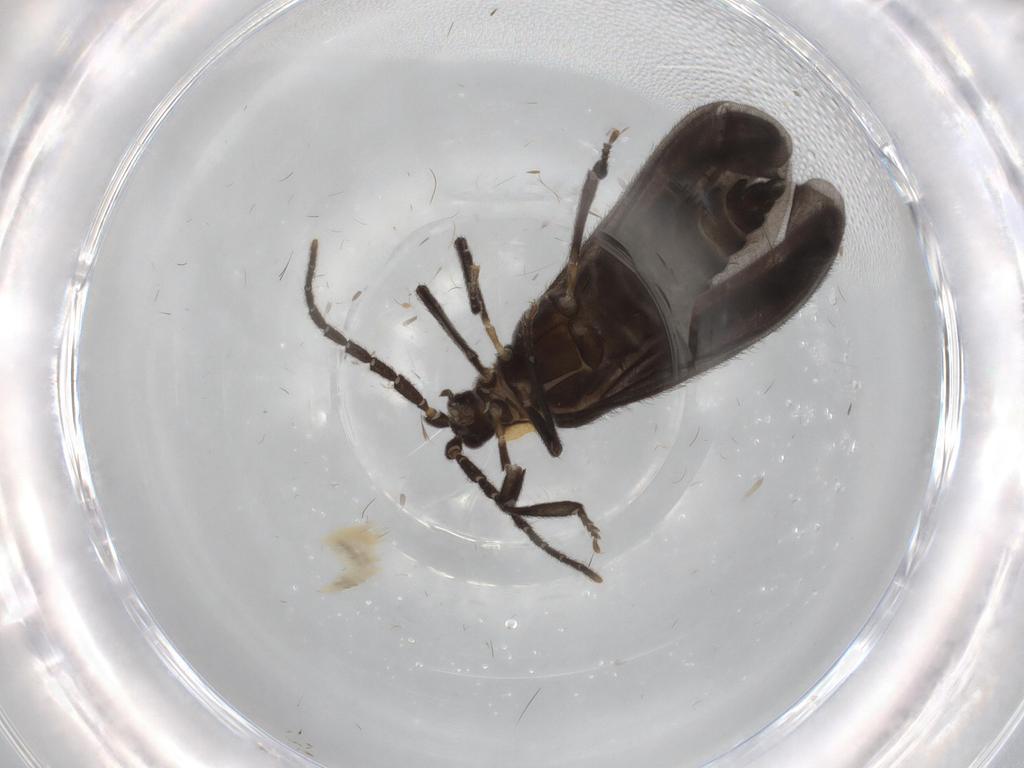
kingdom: Animalia
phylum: Arthropoda
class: Insecta
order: Coleoptera
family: Lycidae
